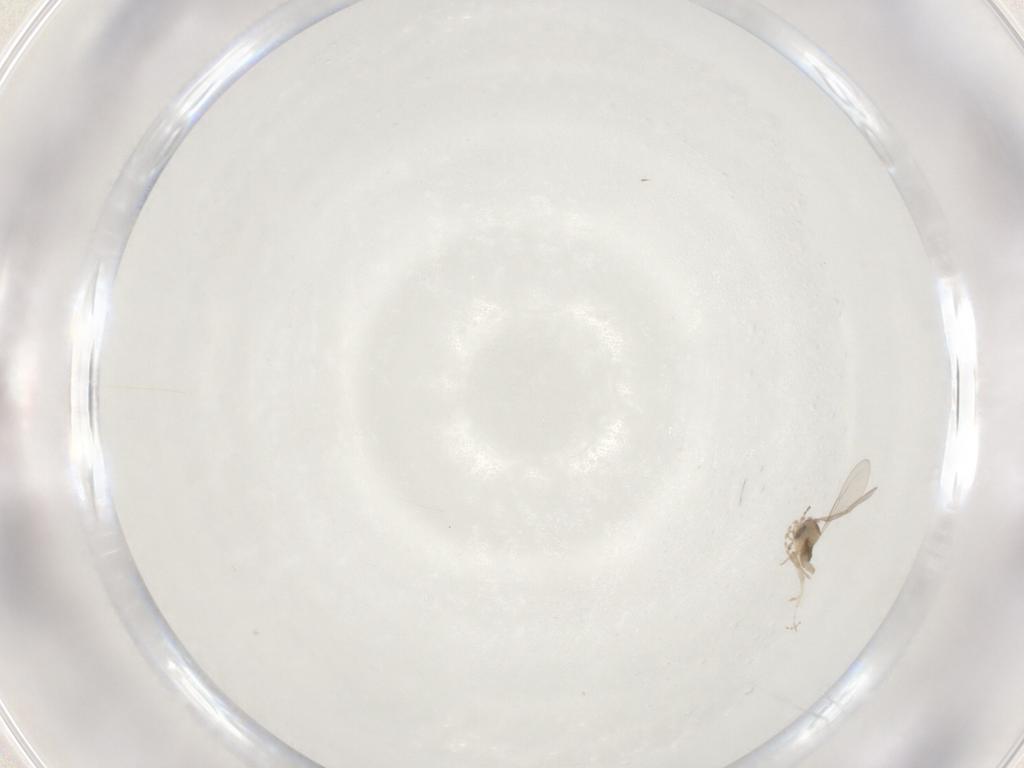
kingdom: Animalia
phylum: Arthropoda
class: Insecta
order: Diptera
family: Cecidomyiidae
